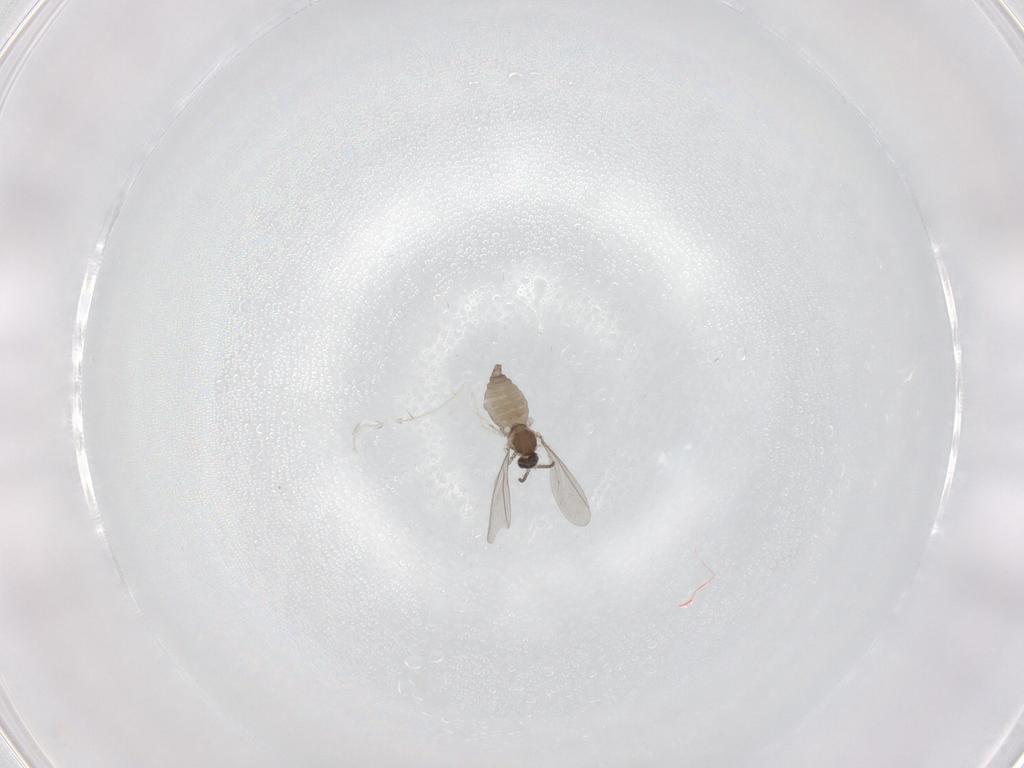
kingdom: Animalia
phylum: Arthropoda
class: Insecta
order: Diptera
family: Cecidomyiidae
